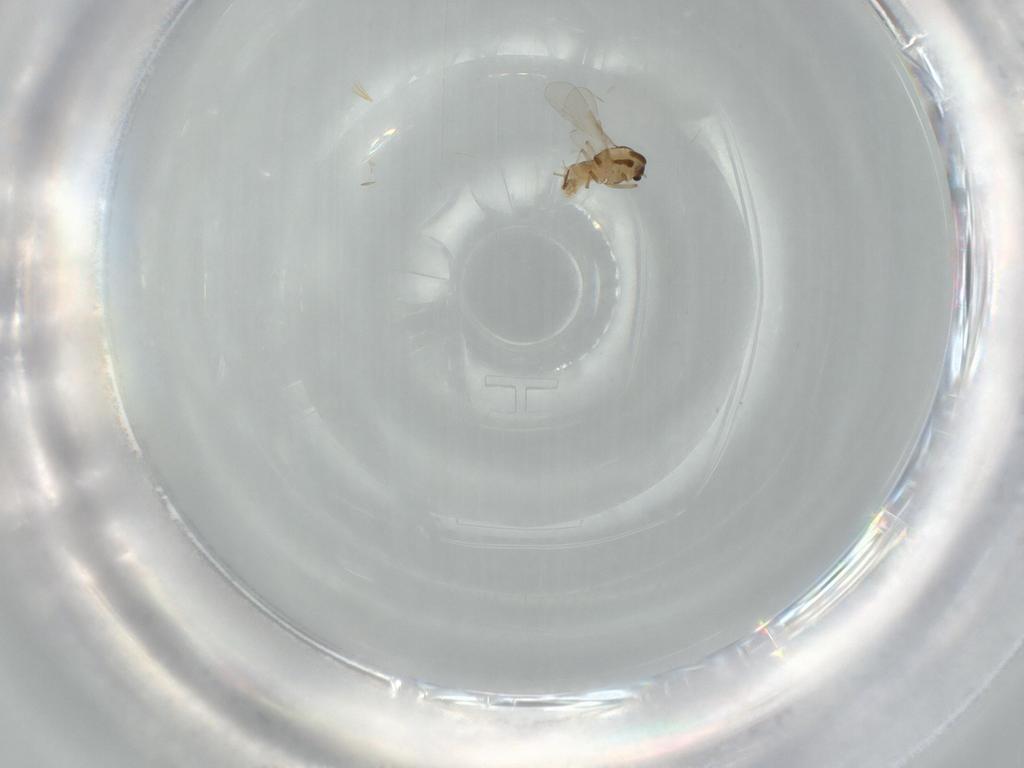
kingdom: Animalia
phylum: Arthropoda
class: Insecta
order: Diptera
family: Chironomidae
